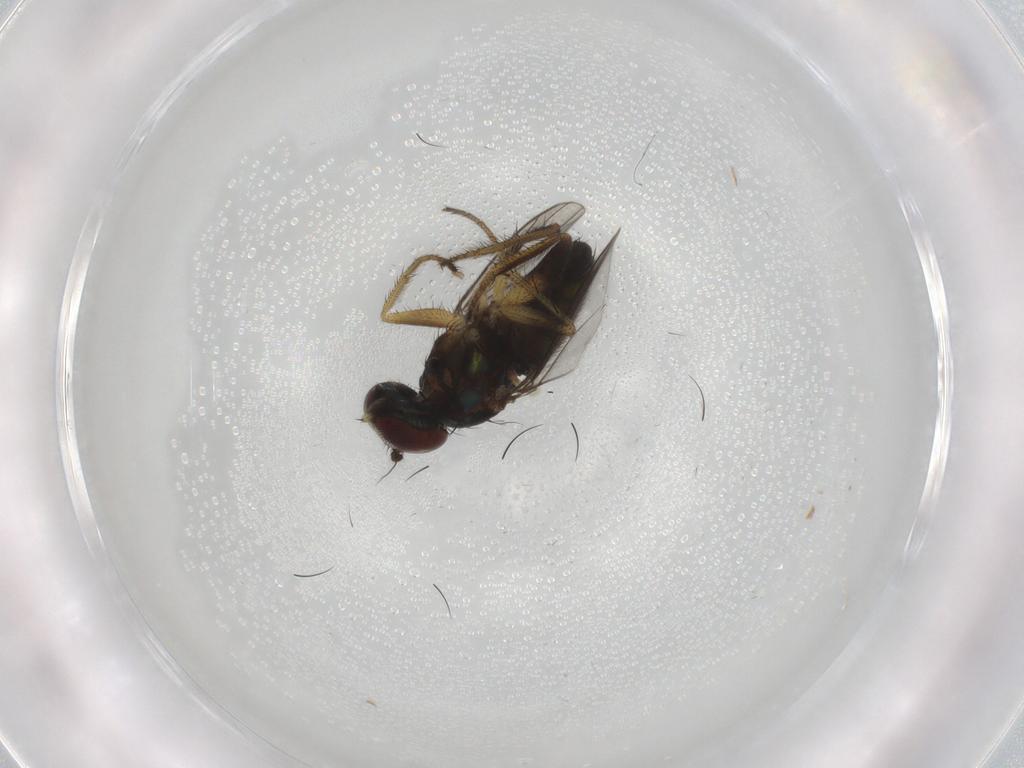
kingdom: Animalia
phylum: Arthropoda
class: Insecta
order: Diptera
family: Dolichopodidae
